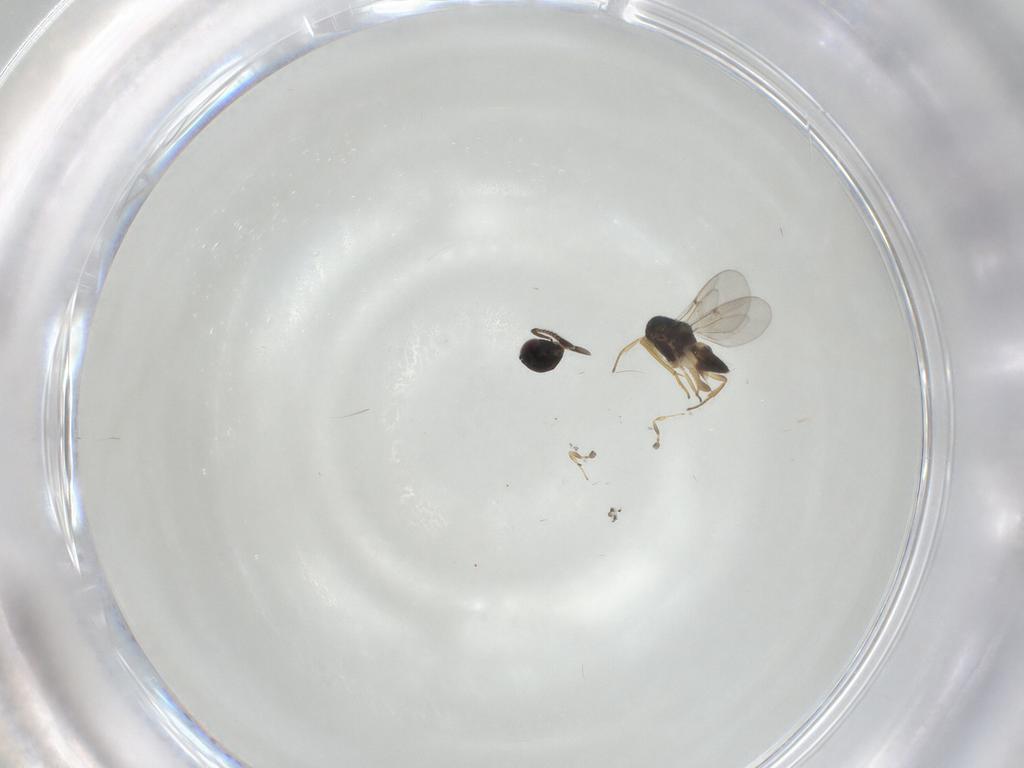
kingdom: Animalia
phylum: Arthropoda
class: Insecta
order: Hymenoptera
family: Scelionidae
